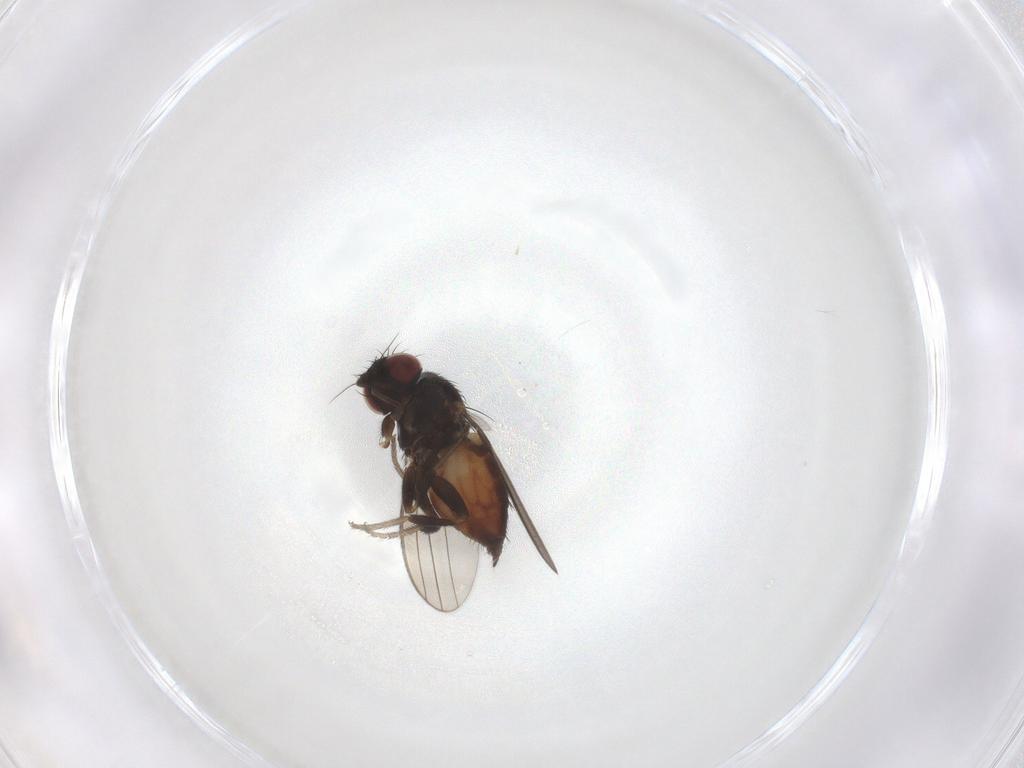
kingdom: Animalia
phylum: Arthropoda
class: Insecta
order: Diptera
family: Milichiidae
